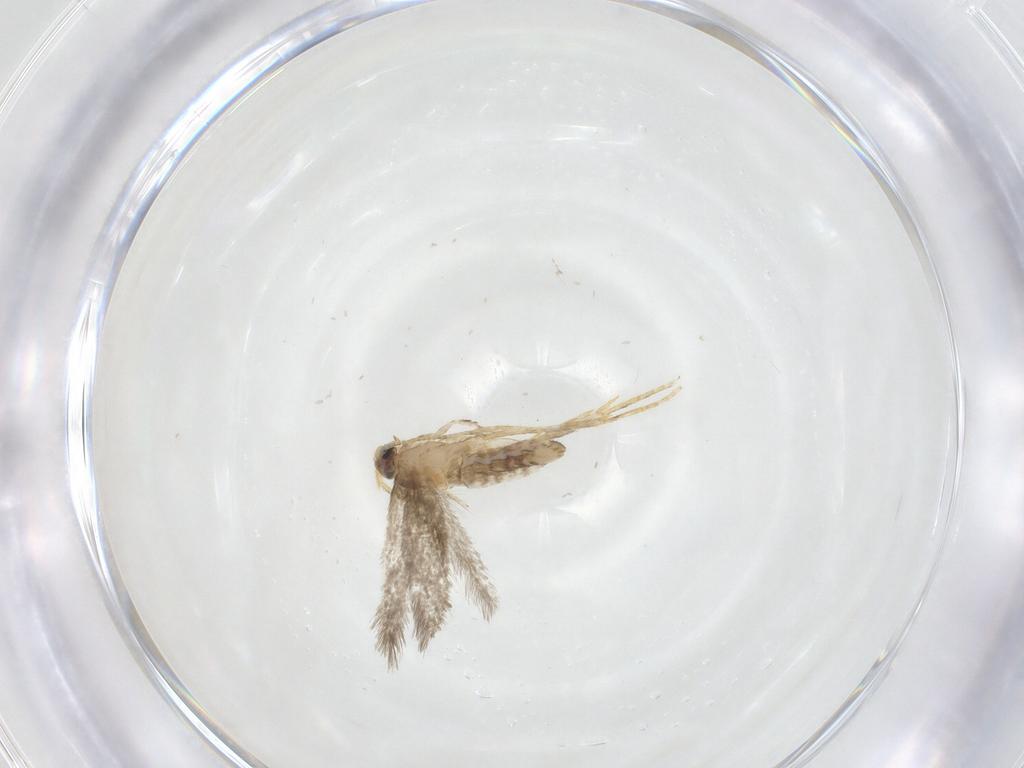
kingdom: Animalia
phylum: Arthropoda
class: Insecta
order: Lepidoptera
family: Nepticulidae
